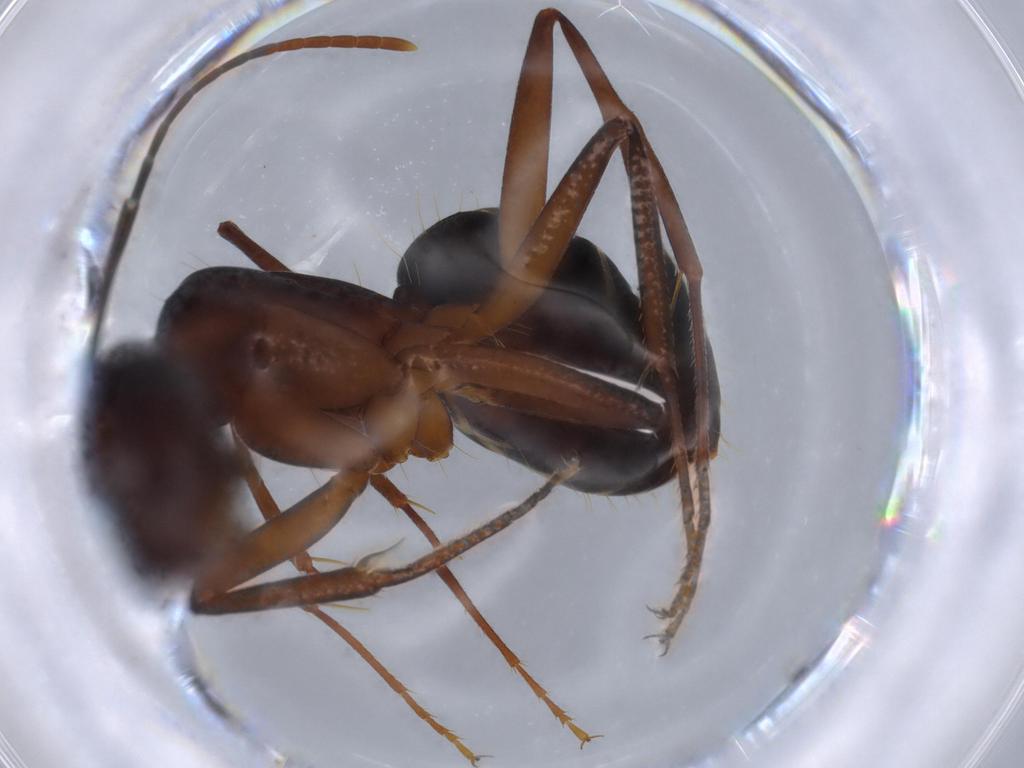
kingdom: Animalia
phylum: Arthropoda
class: Insecta
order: Hymenoptera
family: Formicidae
